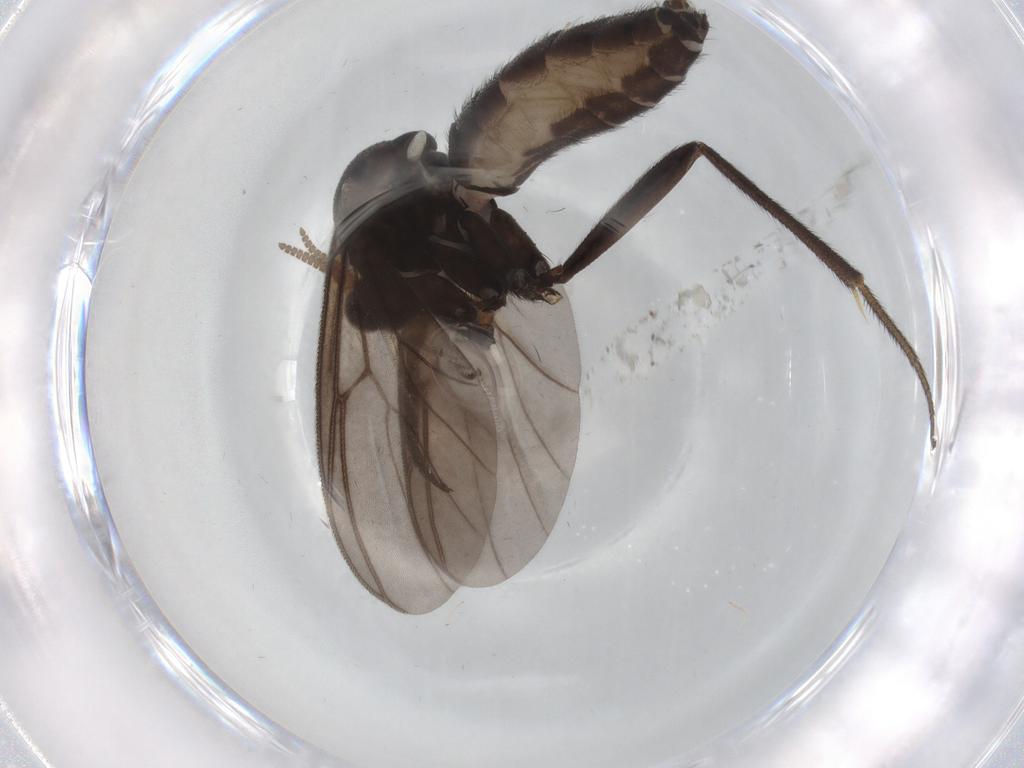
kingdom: Animalia
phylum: Arthropoda
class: Insecta
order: Diptera
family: Mycetophilidae
